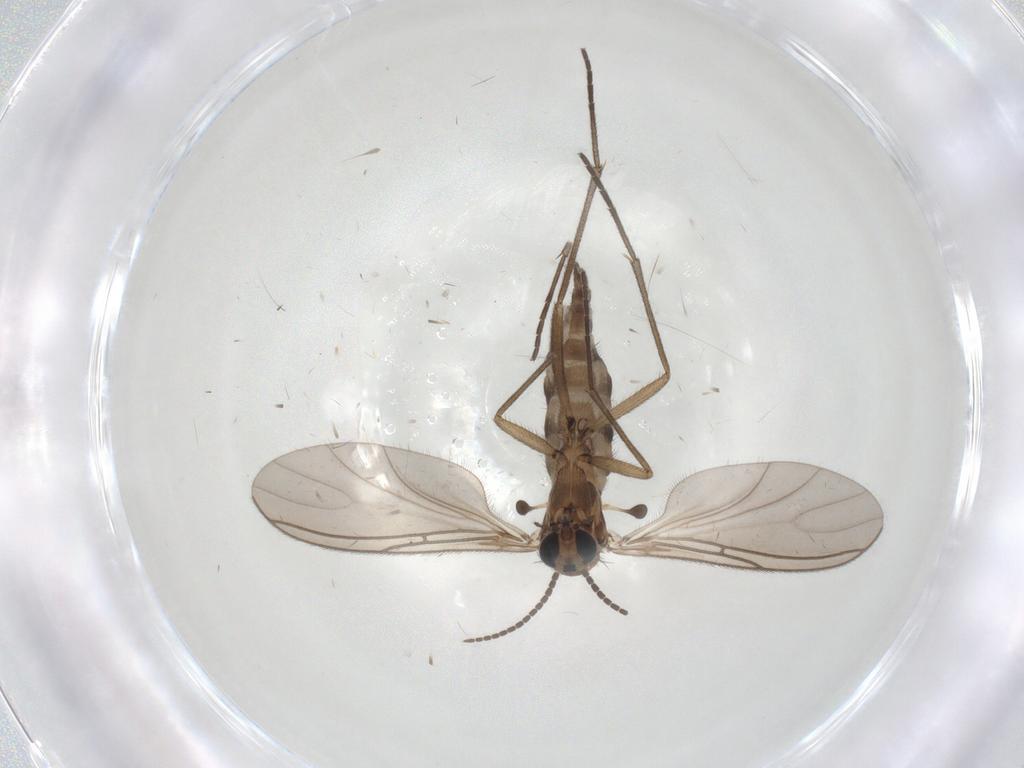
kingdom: Animalia
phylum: Arthropoda
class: Insecta
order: Diptera
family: Sciaridae
